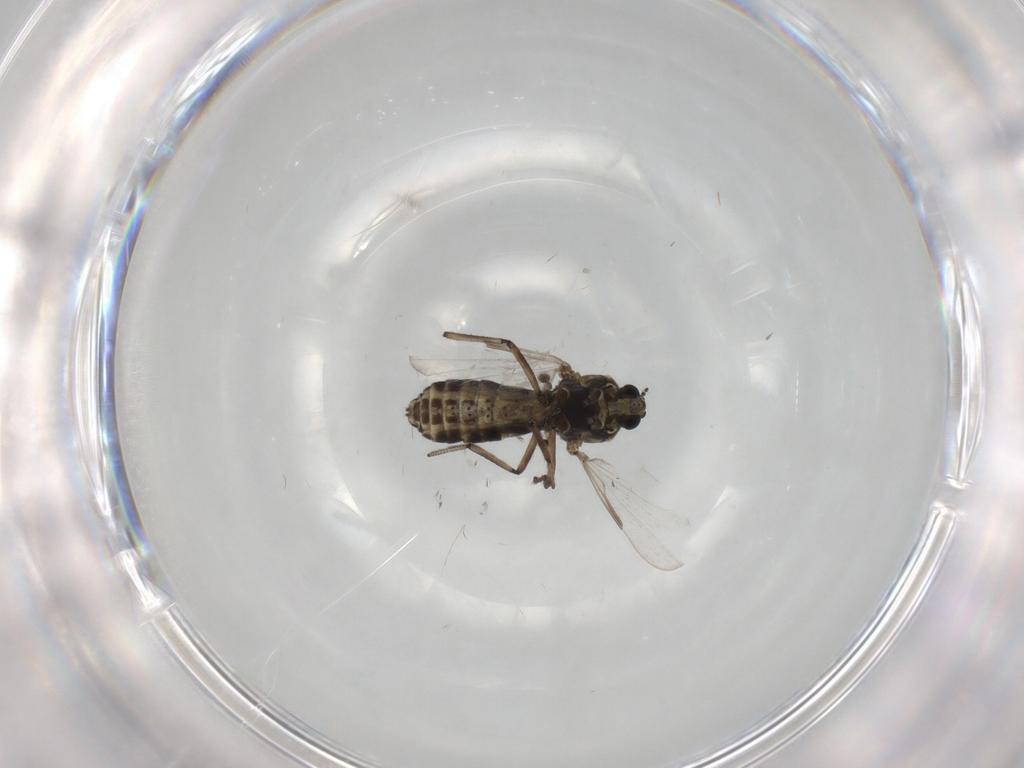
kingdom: Animalia
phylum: Arthropoda
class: Insecta
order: Diptera
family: Ceratopogonidae
